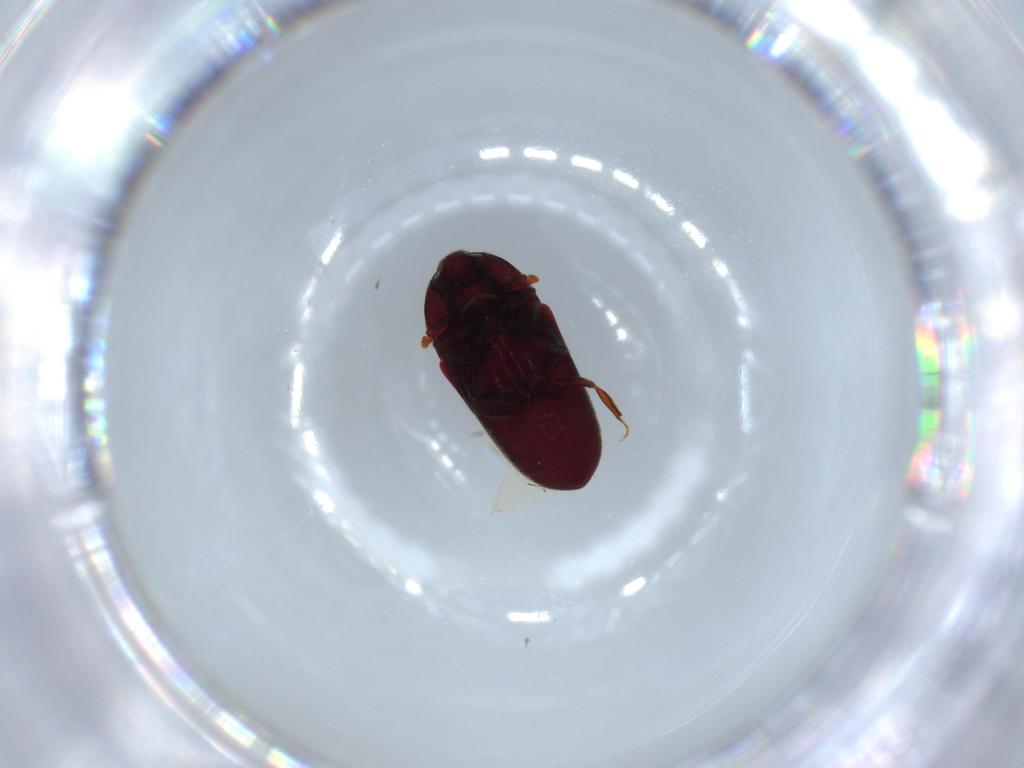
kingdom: Animalia
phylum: Arthropoda
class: Insecta
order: Coleoptera
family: Throscidae
